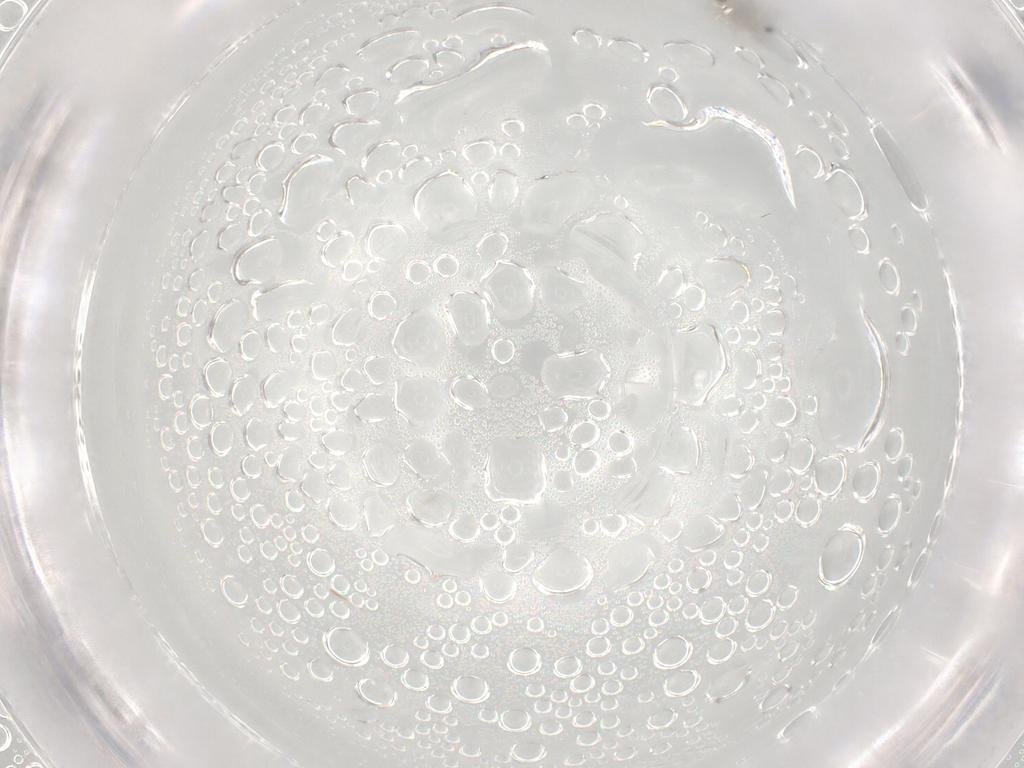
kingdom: Animalia
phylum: Arthropoda
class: Insecta
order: Diptera
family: Cecidomyiidae
